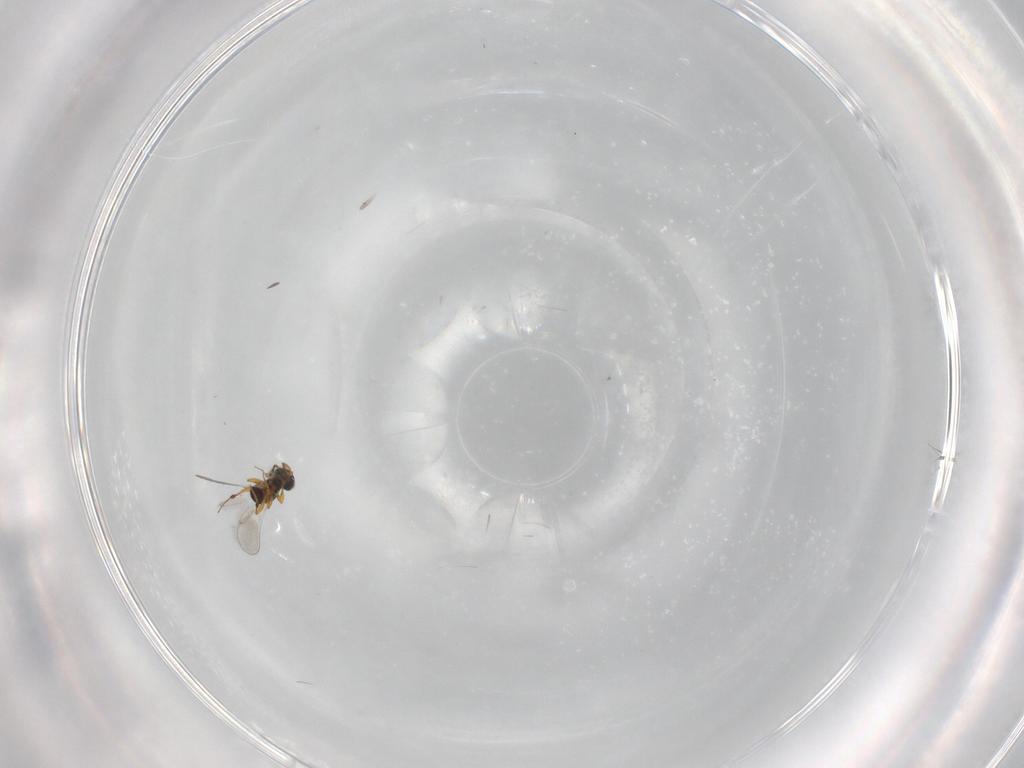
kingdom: Animalia
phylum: Arthropoda
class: Insecta
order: Hymenoptera
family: Platygastridae
